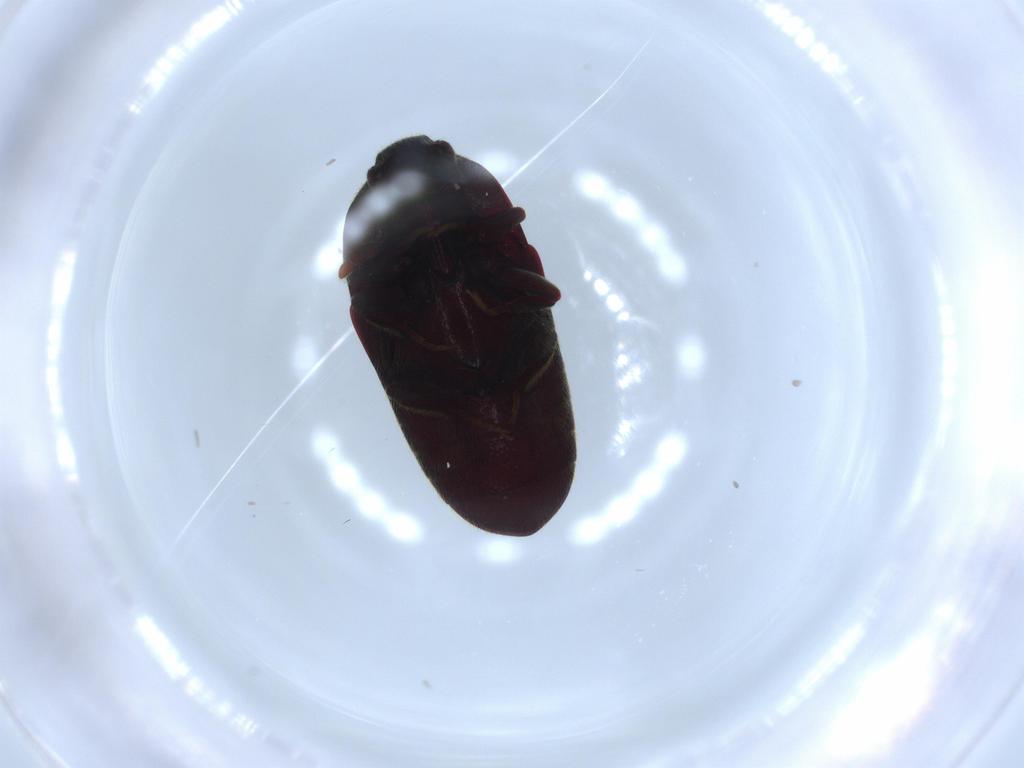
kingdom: Animalia
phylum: Arthropoda
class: Insecta
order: Coleoptera
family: Throscidae
